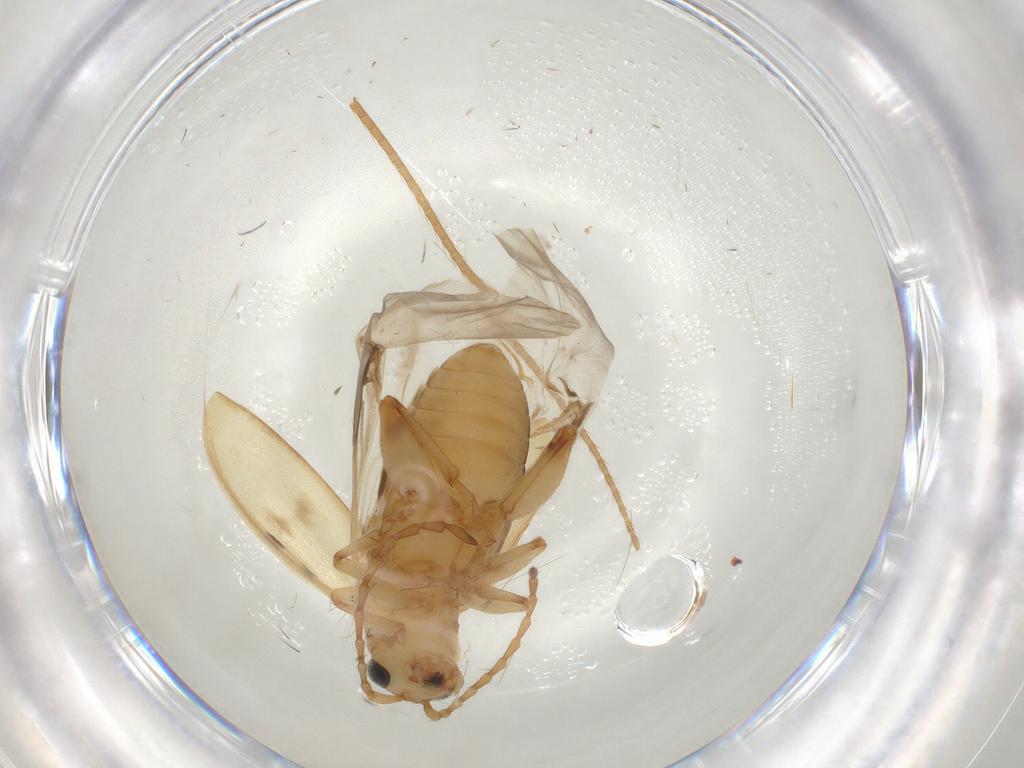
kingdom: Animalia
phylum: Arthropoda
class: Insecta
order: Coleoptera
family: Chrysomelidae
